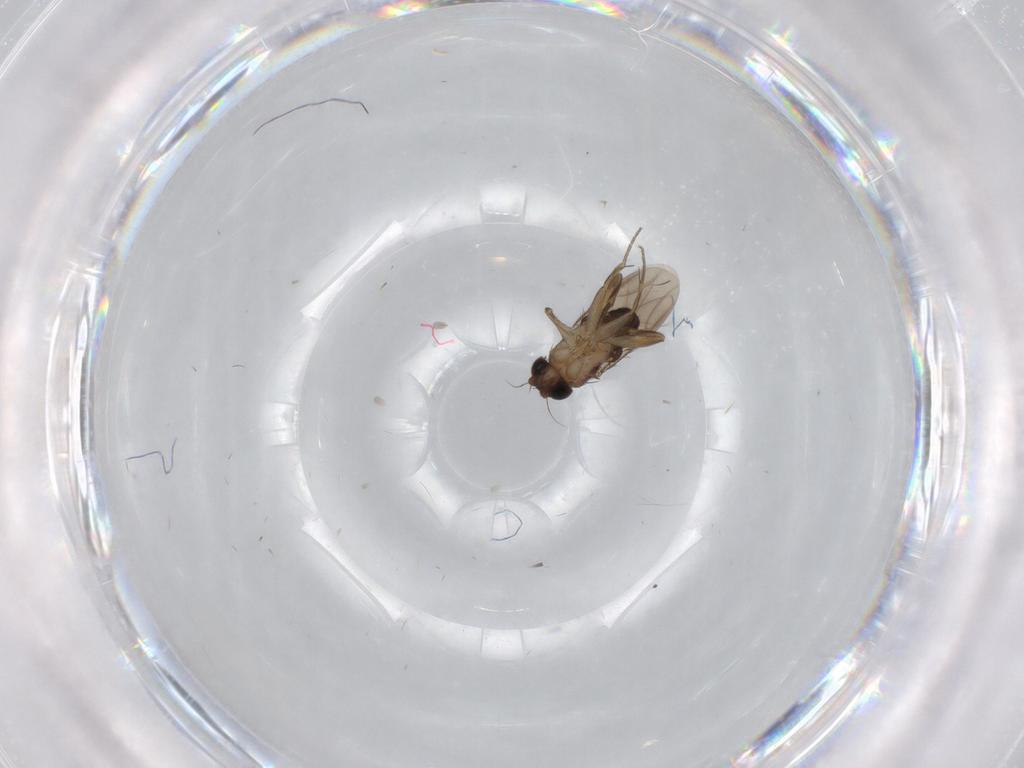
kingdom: Animalia
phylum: Arthropoda
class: Insecta
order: Diptera
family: Phoridae
